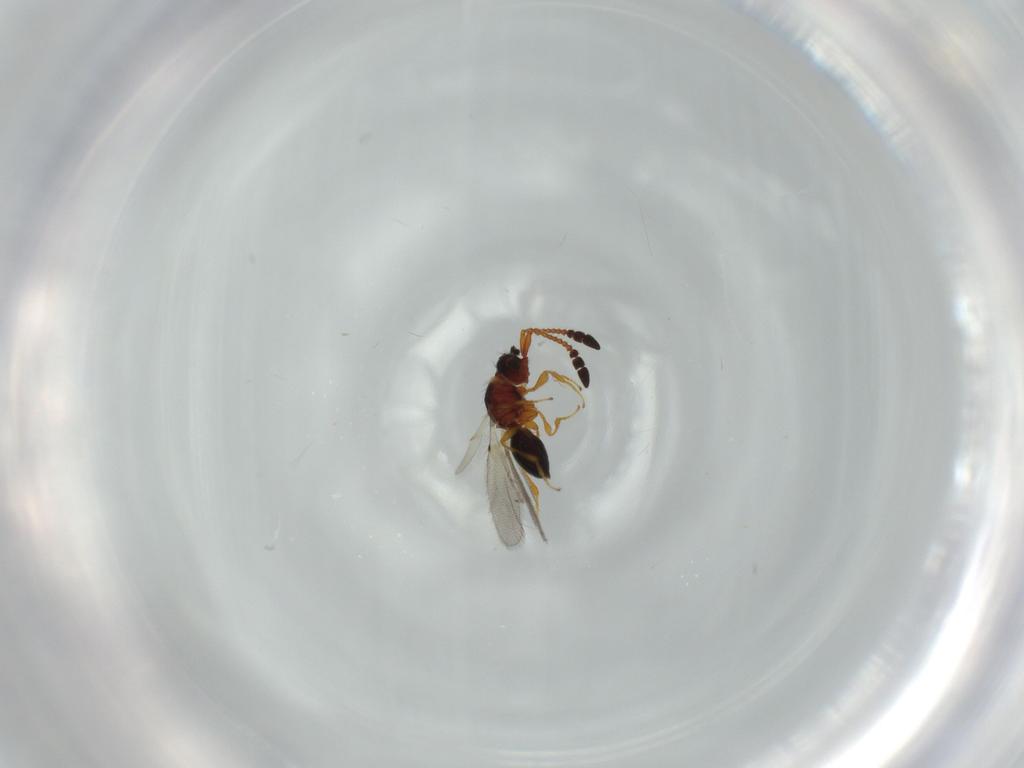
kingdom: Animalia
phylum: Arthropoda
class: Insecta
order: Hymenoptera
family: Diapriidae
